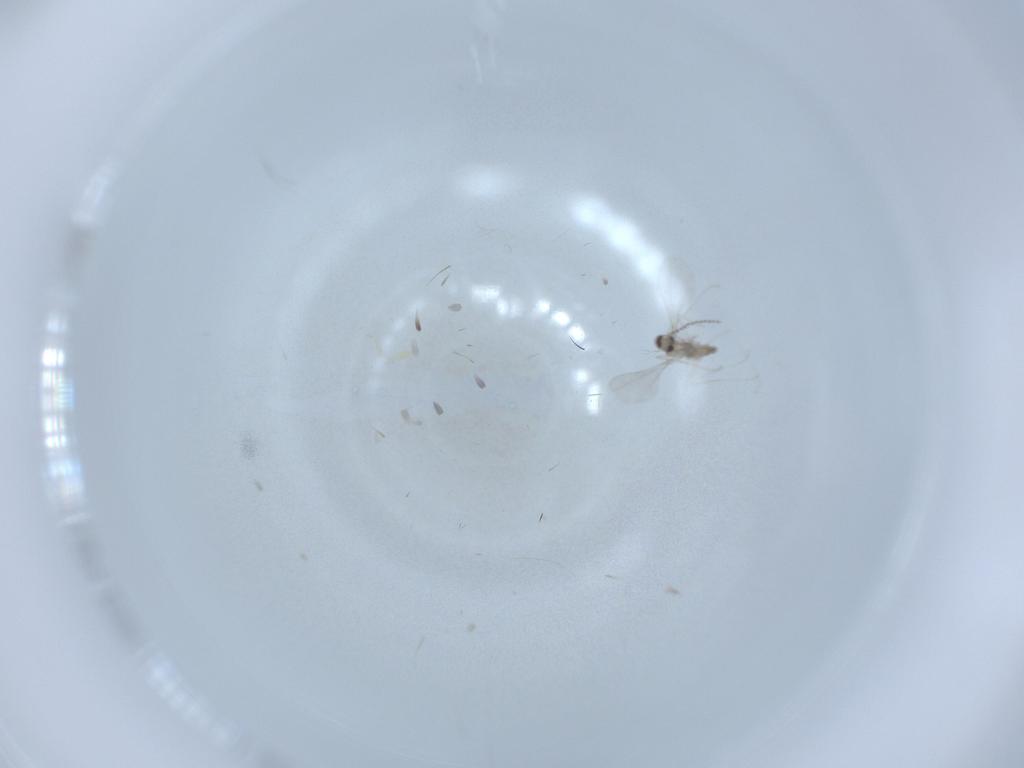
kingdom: Animalia
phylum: Arthropoda
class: Insecta
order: Diptera
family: Cecidomyiidae
